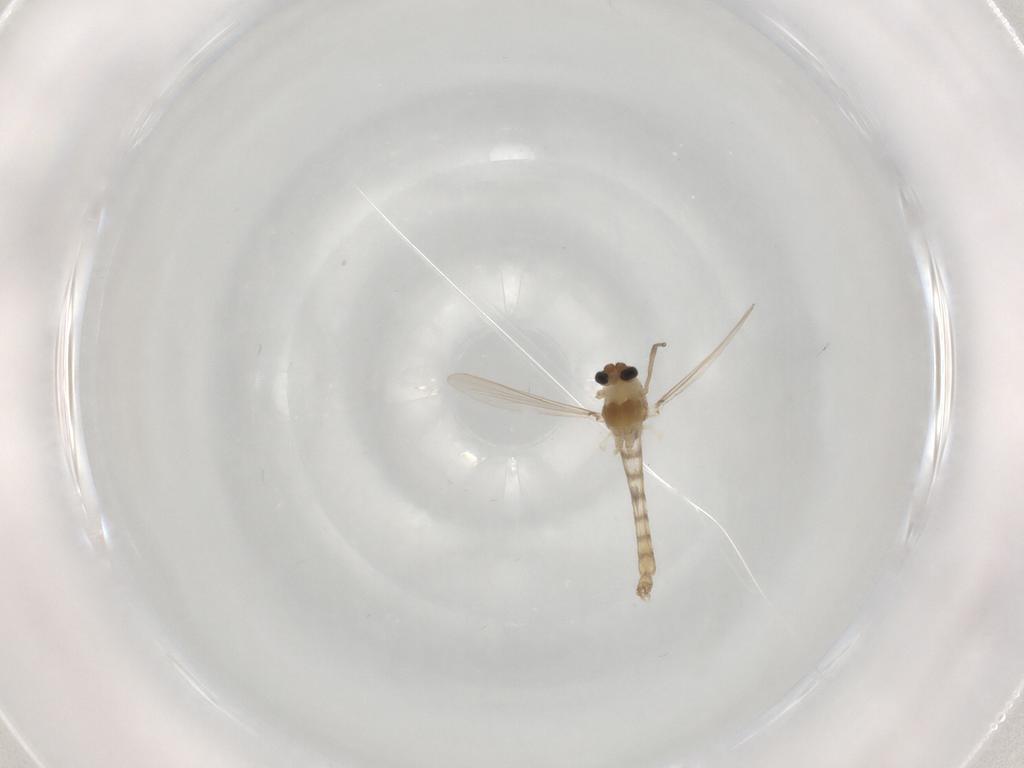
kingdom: Animalia
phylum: Arthropoda
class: Insecta
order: Diptera
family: Chironomidae
